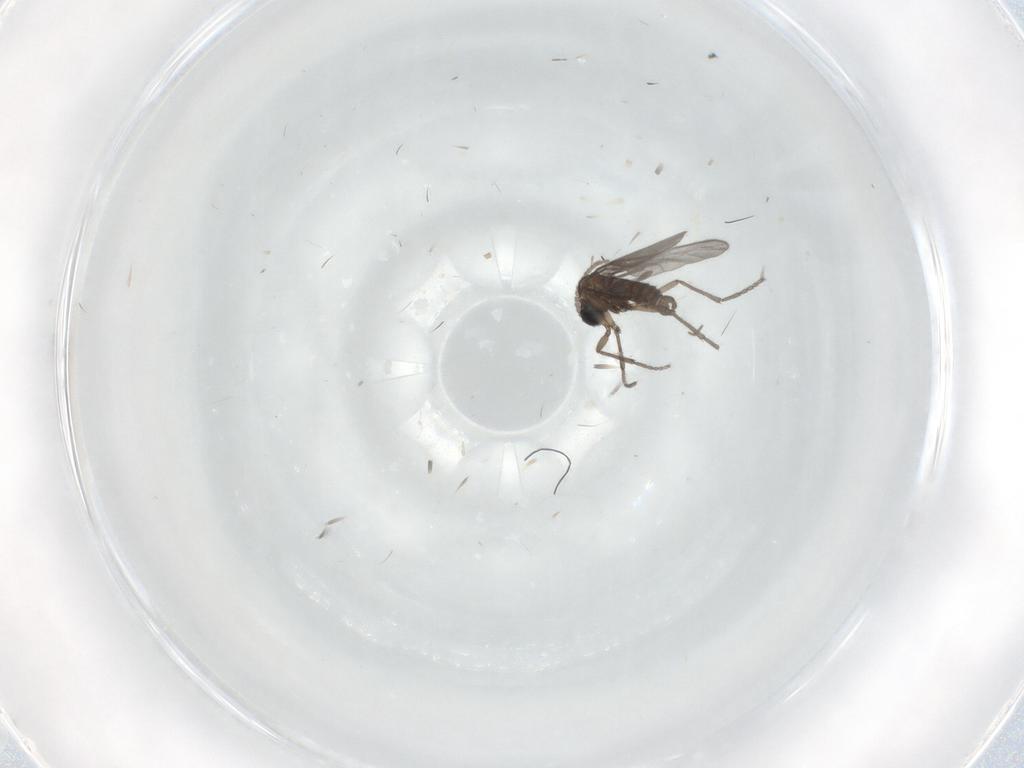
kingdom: Animalia
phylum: Arthropoda
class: Insecta
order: Diptera
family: Sciaridae
